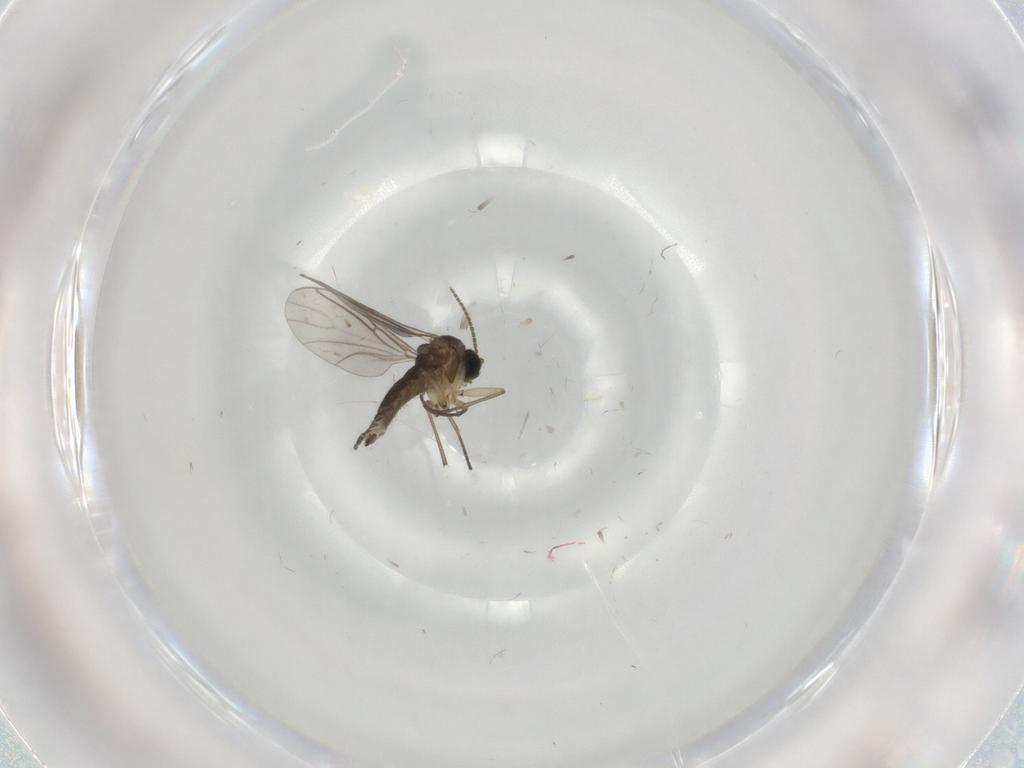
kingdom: Animalia
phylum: Arthropoda
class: Insecta
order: Diptera
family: Sciaridae
